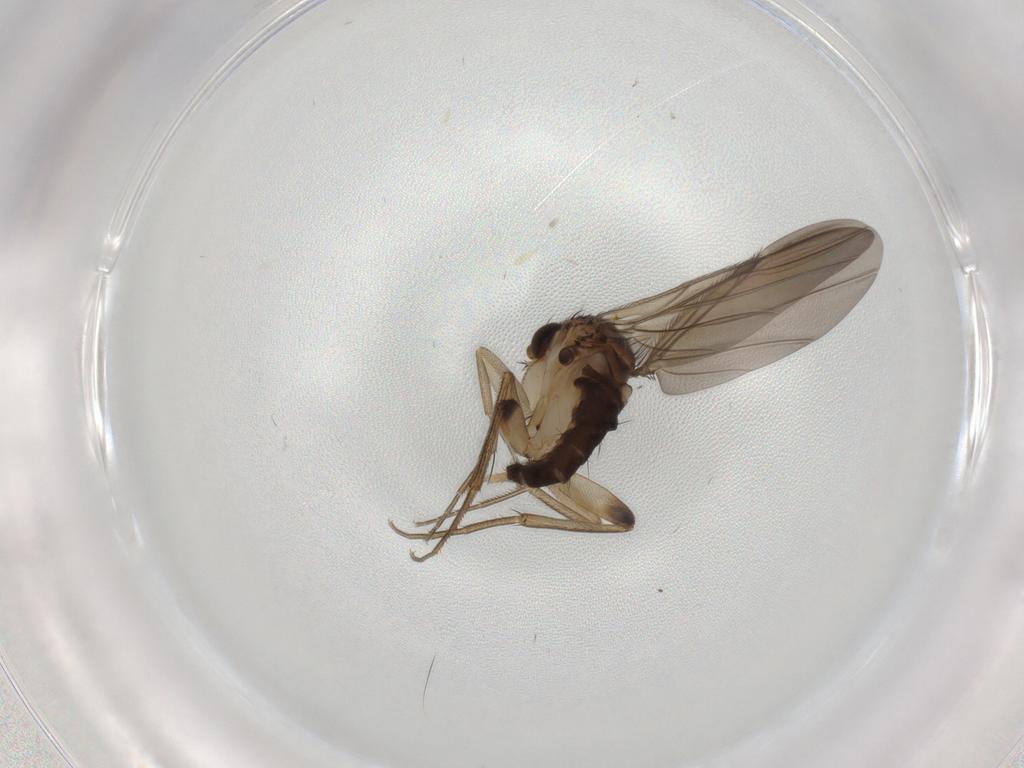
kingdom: Animalia
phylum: Arthropoda
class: Insecta
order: Diptera
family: Phoridae
